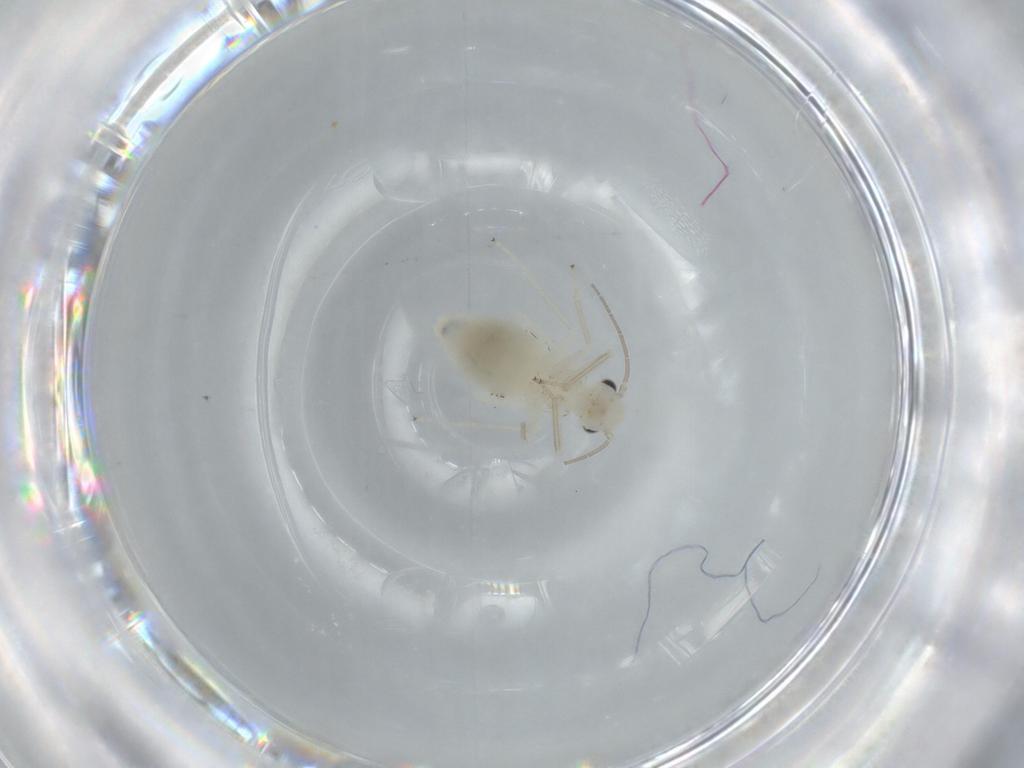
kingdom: Animalia
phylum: Arthropoda
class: Insecta
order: Psocodea
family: Caeciliusidae
